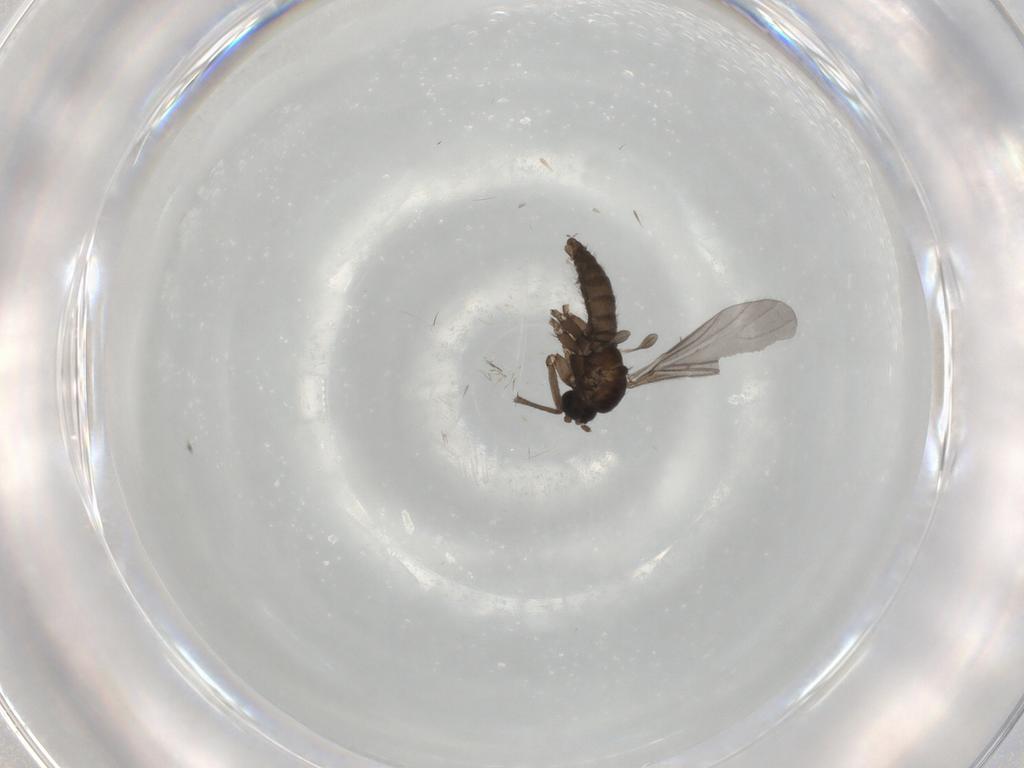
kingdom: Animalia
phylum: Arthropoda
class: Insecta
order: Diptera
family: Sciaridae
